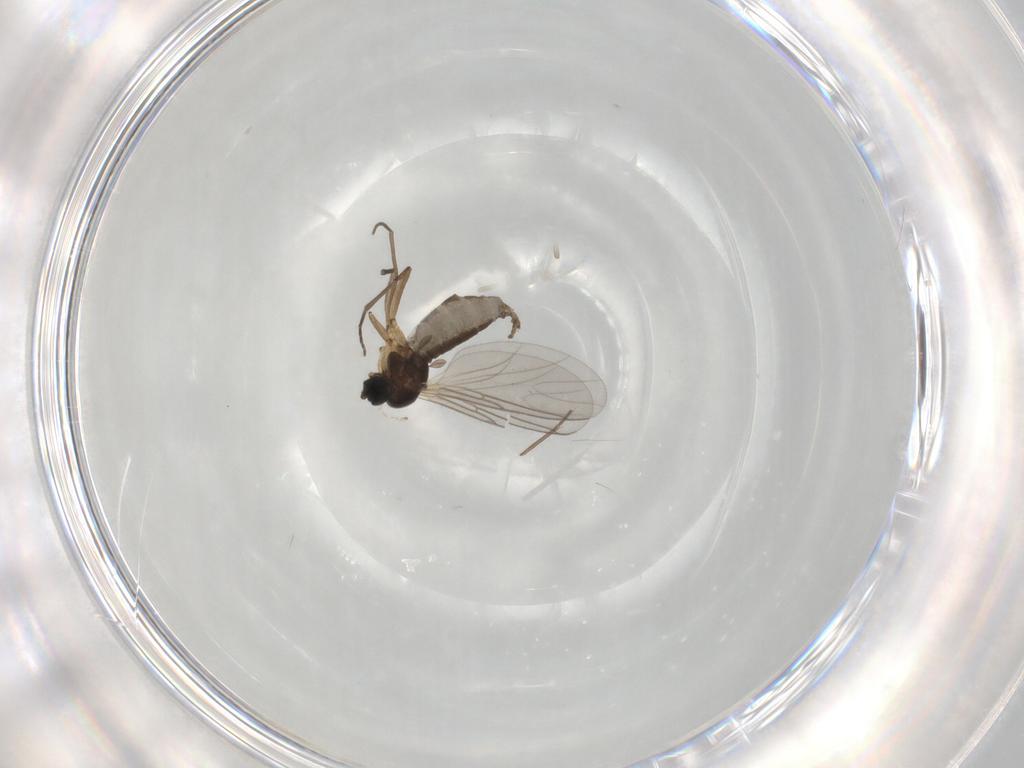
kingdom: Animalia
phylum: Arthropoda
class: Insecta
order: Diptera
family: Sciaridae
